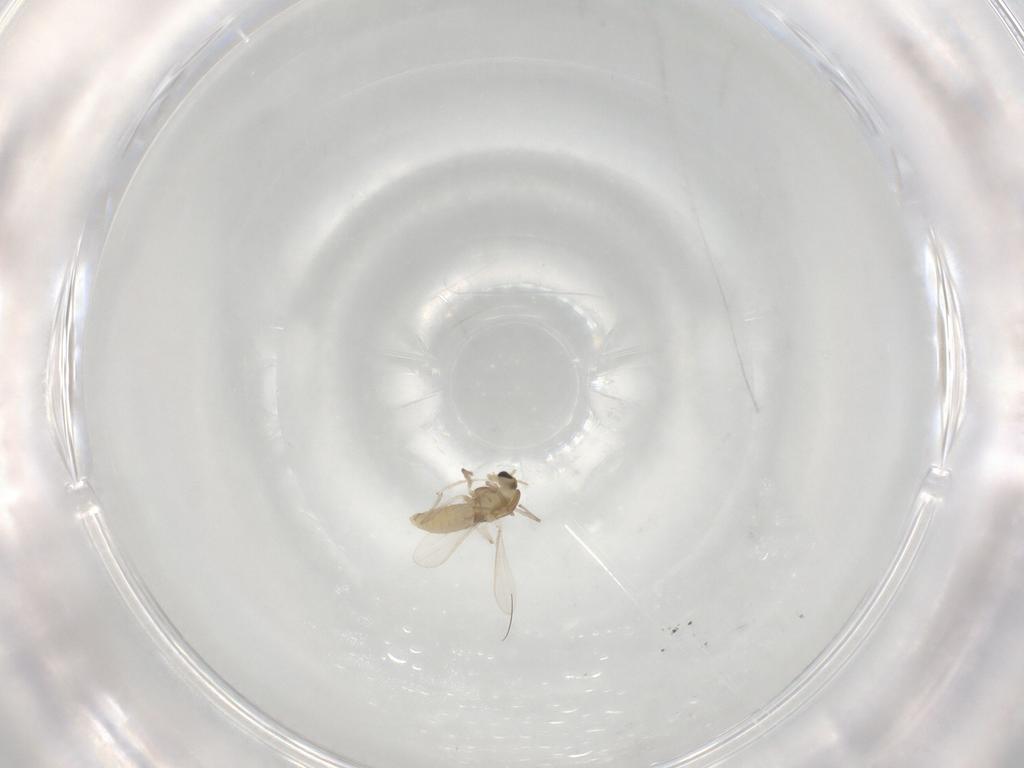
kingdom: Animalia
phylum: Arthropoda
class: Insecta
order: Diptera
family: Chironomidae
